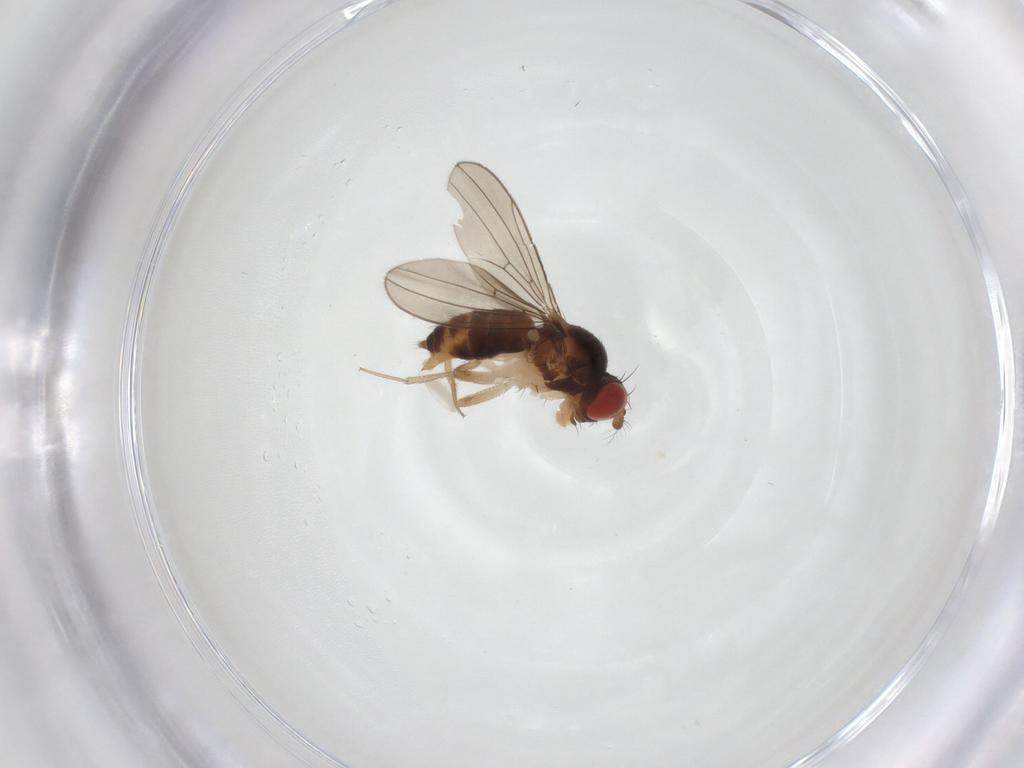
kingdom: Animalia
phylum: Arthropoda
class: Insecta
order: Diptera
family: Drosophilidae
